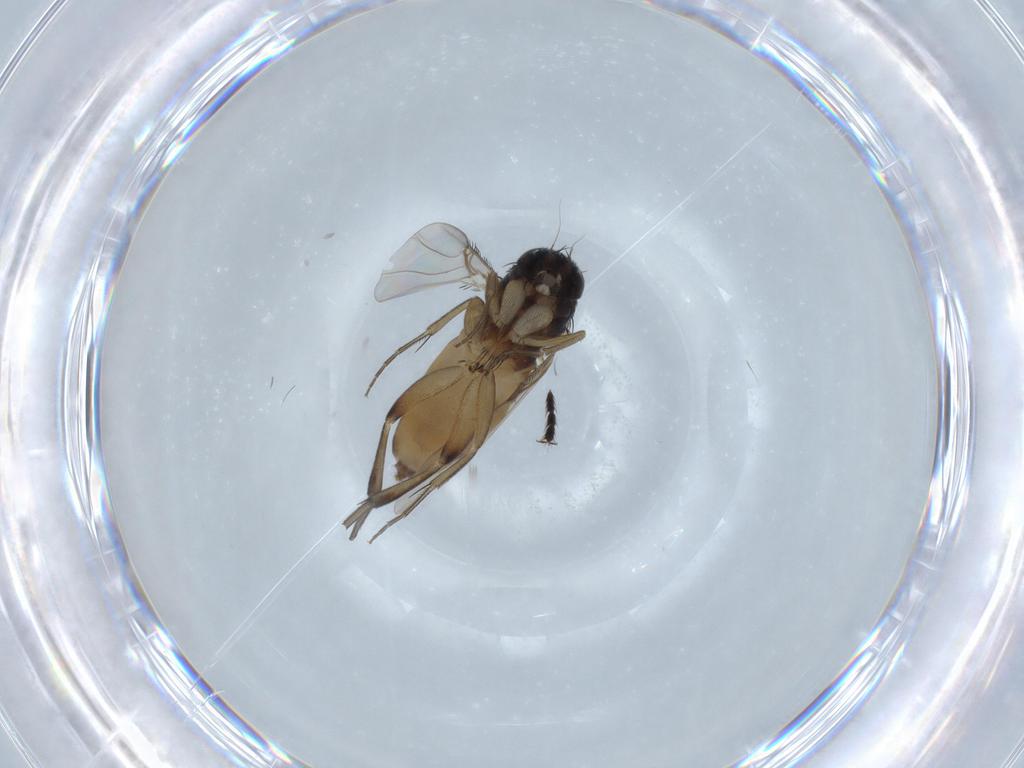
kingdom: Animalia
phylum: Arthropoda
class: Insecta
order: Diptera
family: Phoridae
